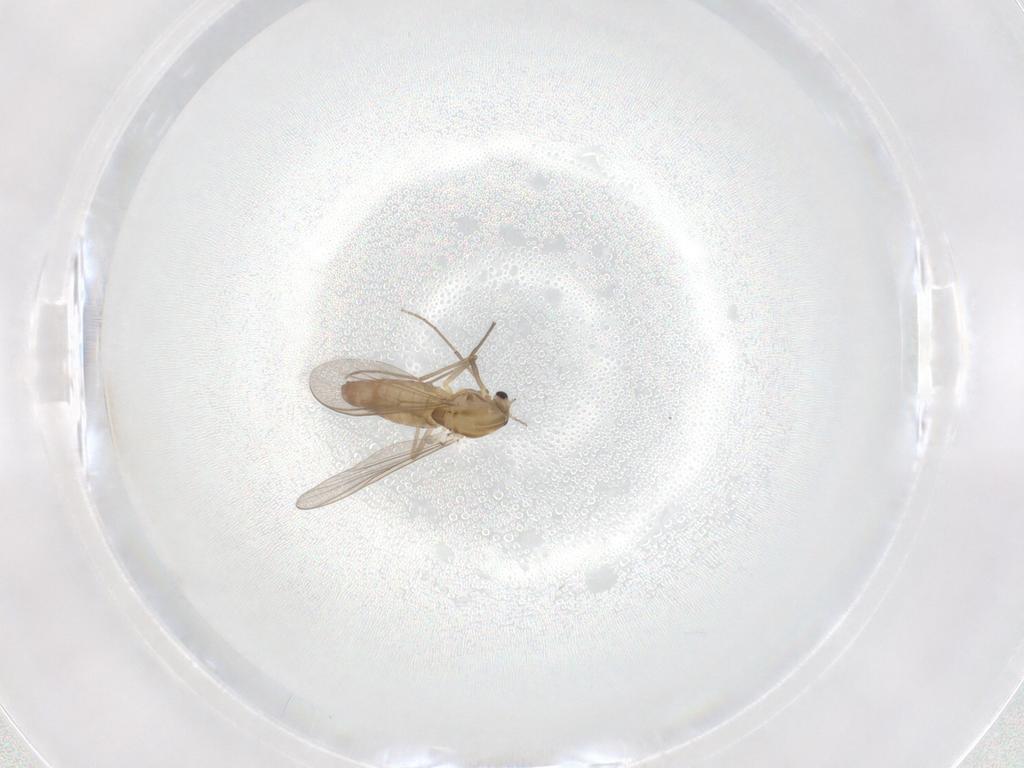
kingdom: Animalia
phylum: Arthropoda
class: Insecta
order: Diptera
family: Chironomidae
